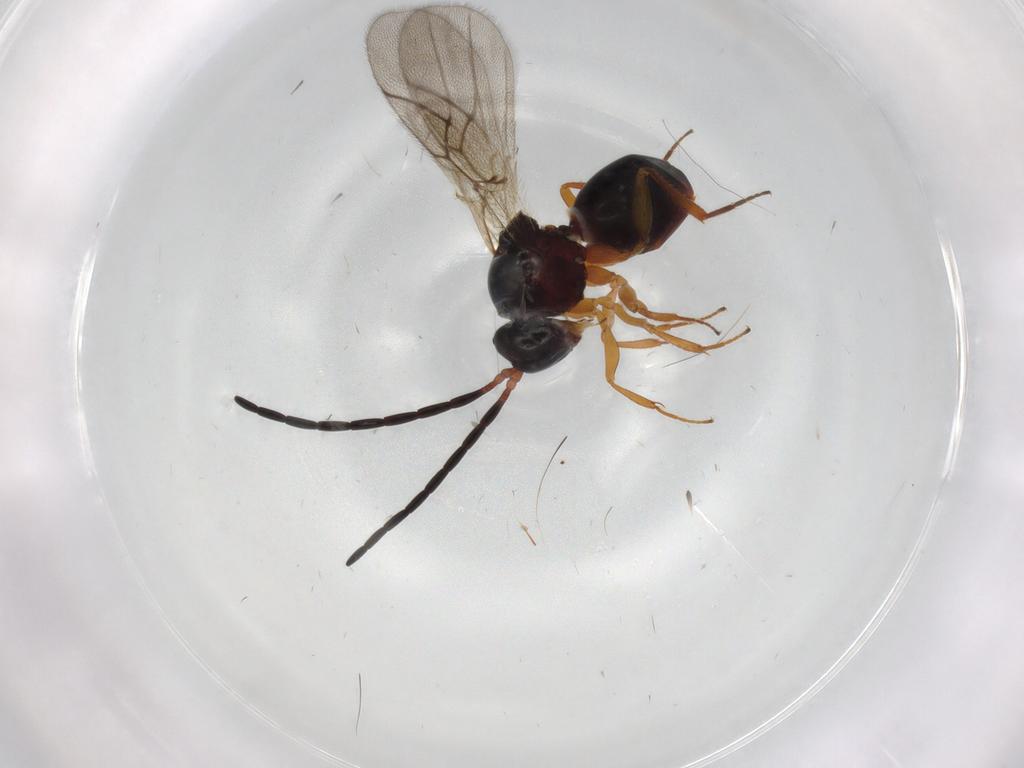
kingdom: Animalia
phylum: Arthropoda
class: Insecta
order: Hymenoptera
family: Figitidae
